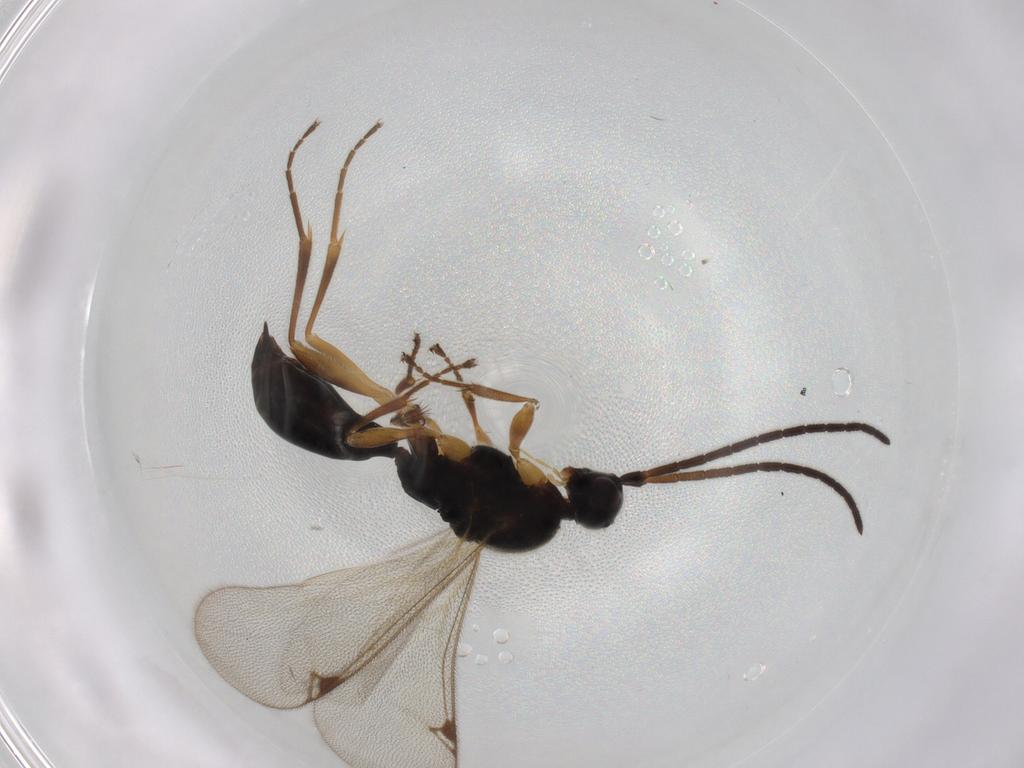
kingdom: Animalia
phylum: Arthropoda
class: Insecta
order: Hymenoptera
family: Proctotrupidae
